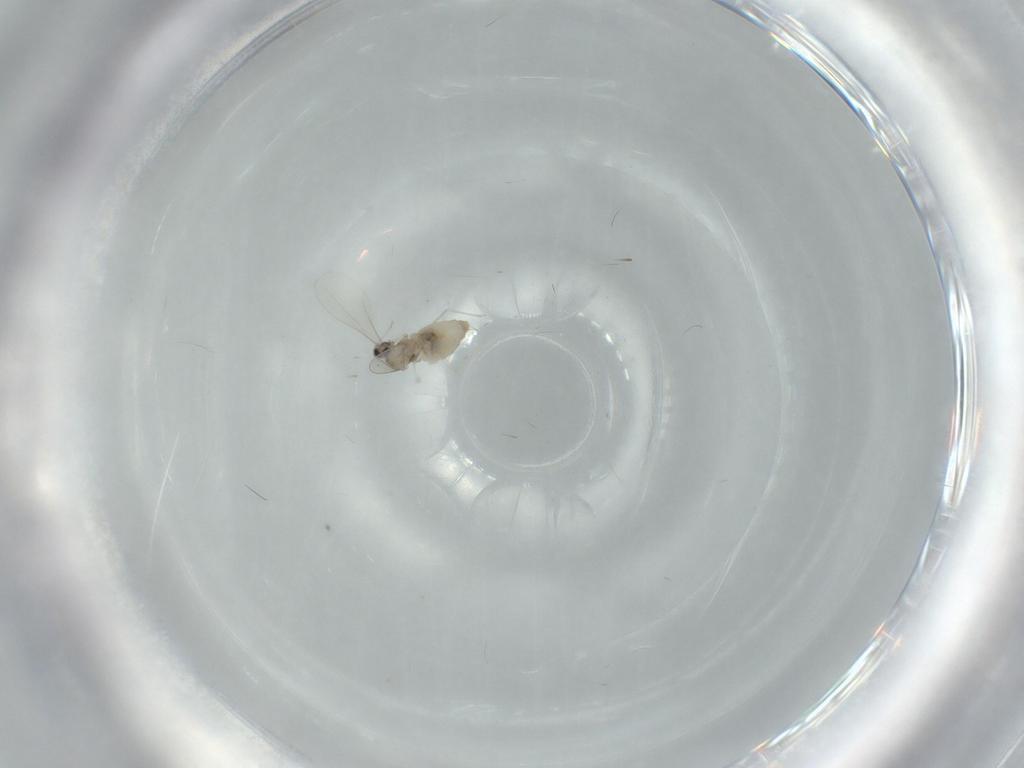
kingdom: Animalia
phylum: Arthropoda
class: Insecta
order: Diptera
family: Cecidomyiidae
